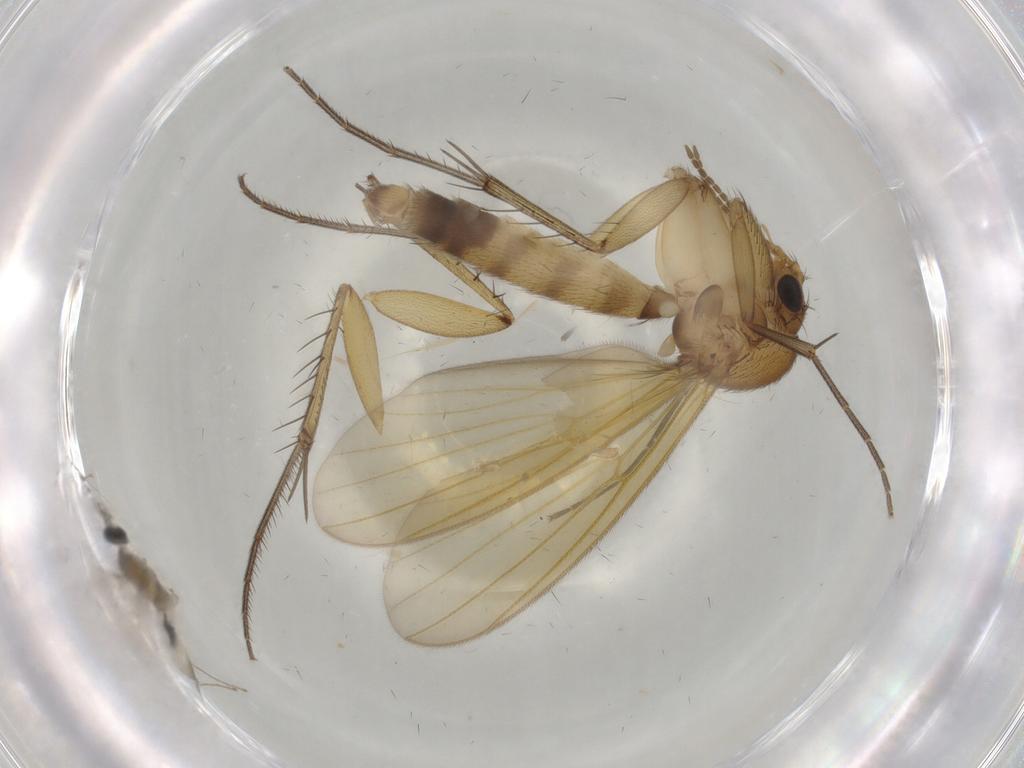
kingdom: Animalia
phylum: Arthropoda
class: Insecta
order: Diptera
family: Mycetophilidae
